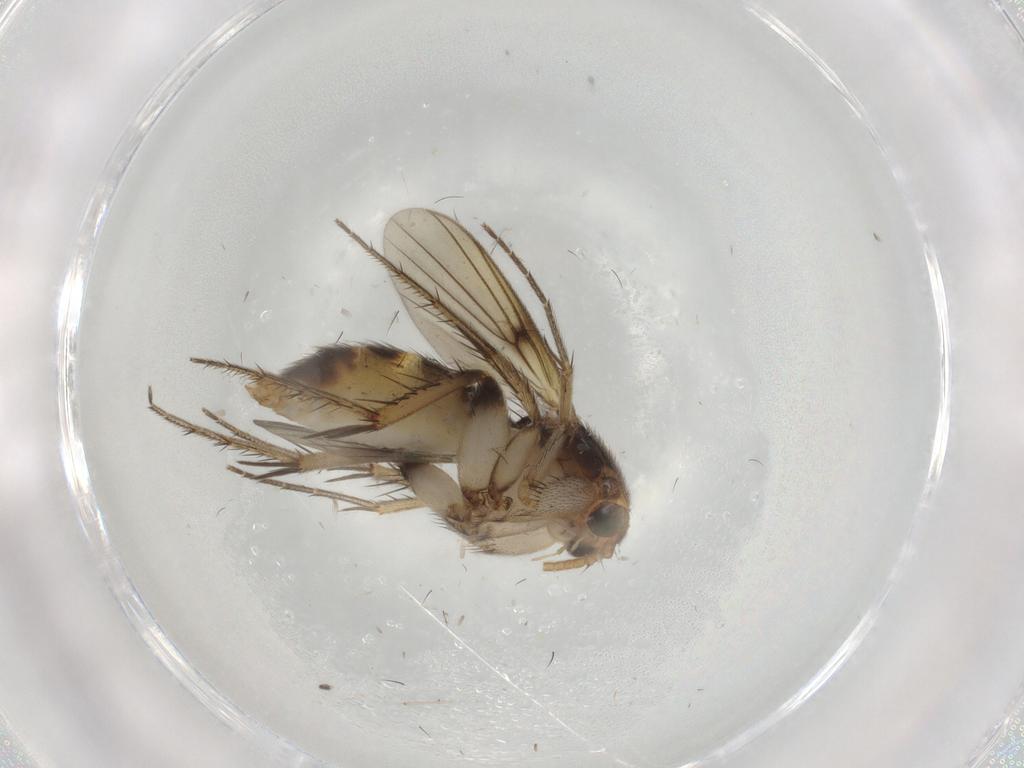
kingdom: Animalia
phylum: Arthropoda
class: Insecta
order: Diptera
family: Mycetophilidae
